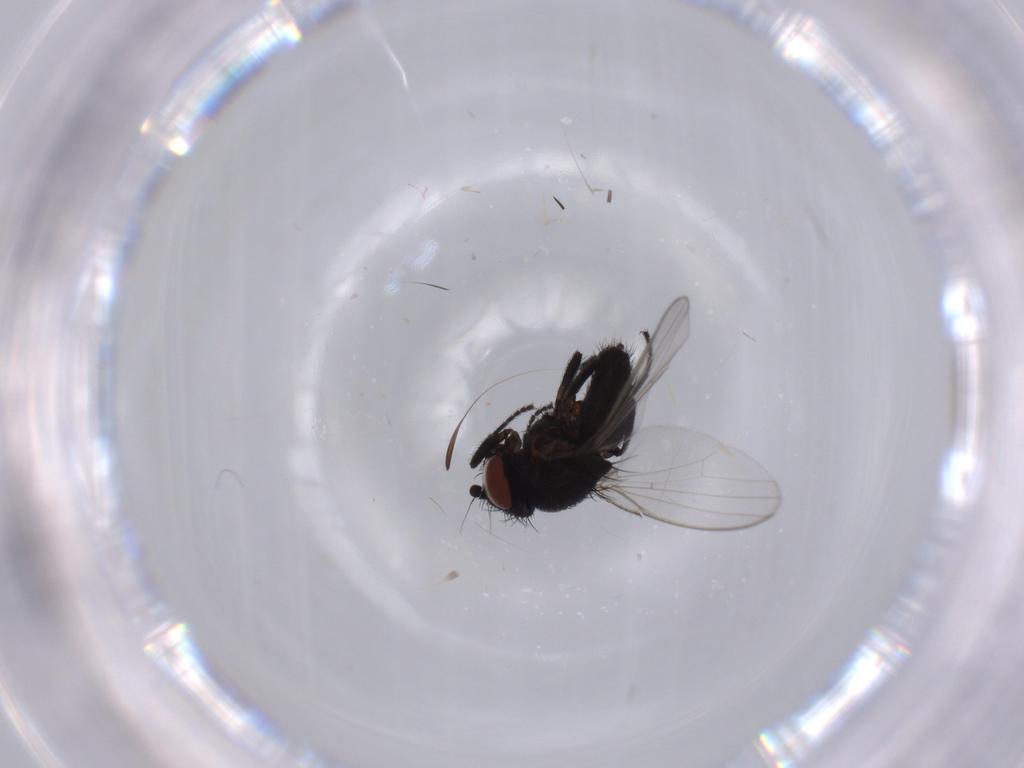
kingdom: Animalia
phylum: Arthropoda
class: Insecta
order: Diptera
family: Milichiidae
